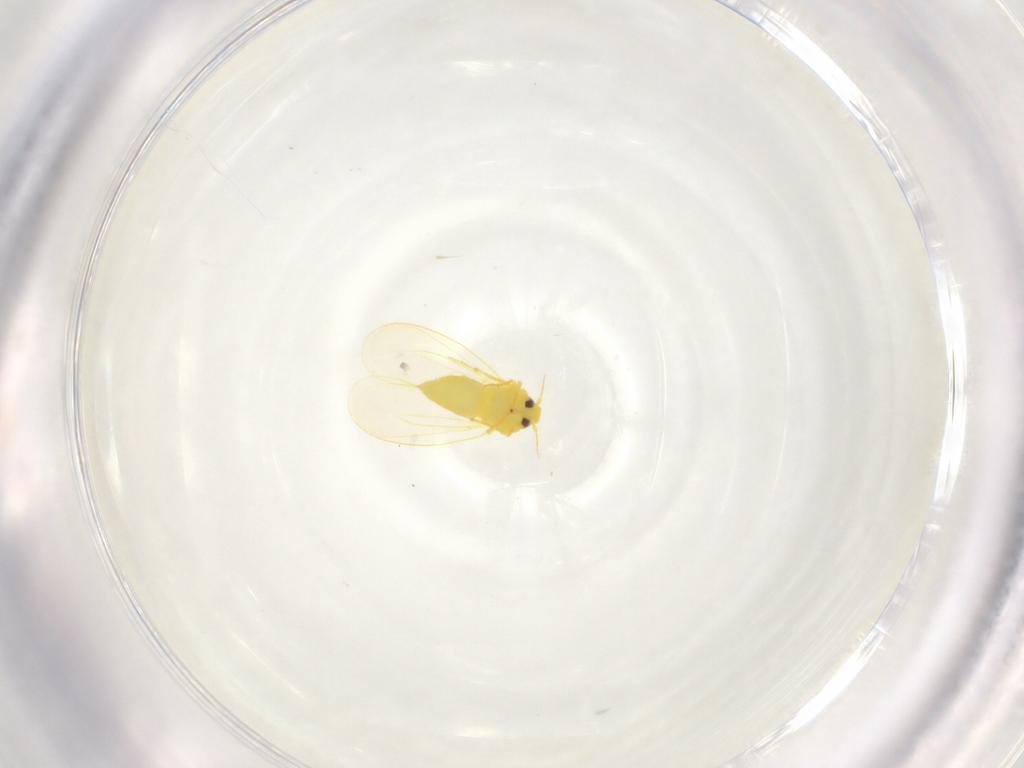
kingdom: Animalia
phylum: Arthropoda
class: Insecta
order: Hemiptera
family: Aleyrodidae
